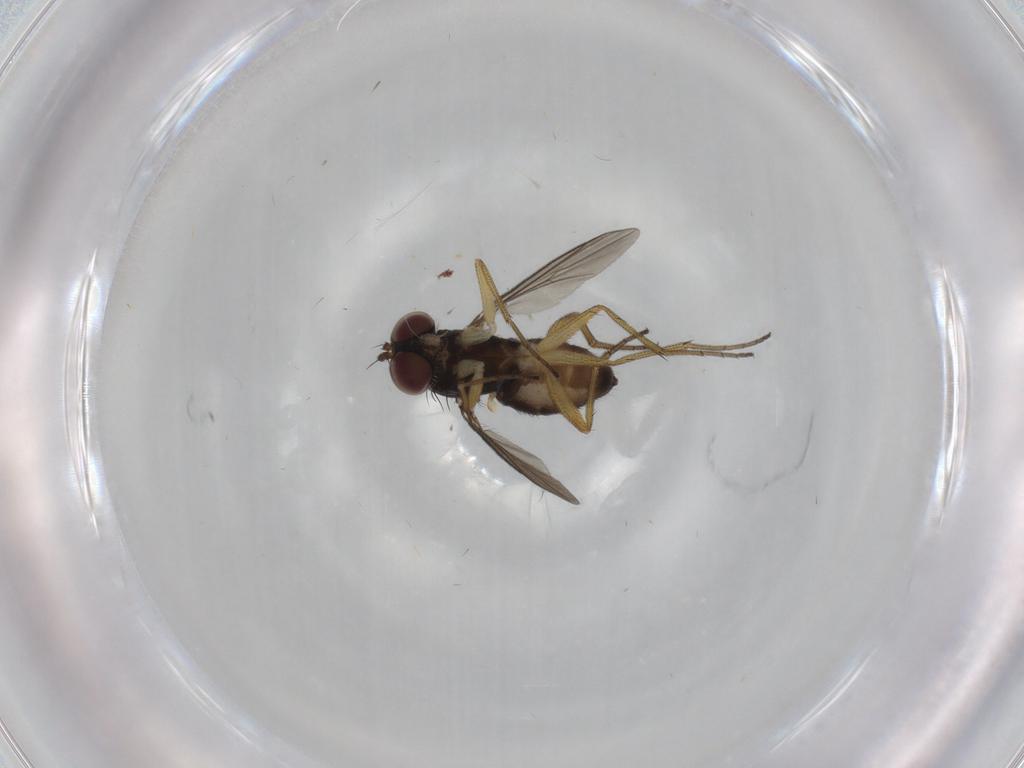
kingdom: Animalia
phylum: Arthropoda
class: Insecta
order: Diptera
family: Dolichopodidae
